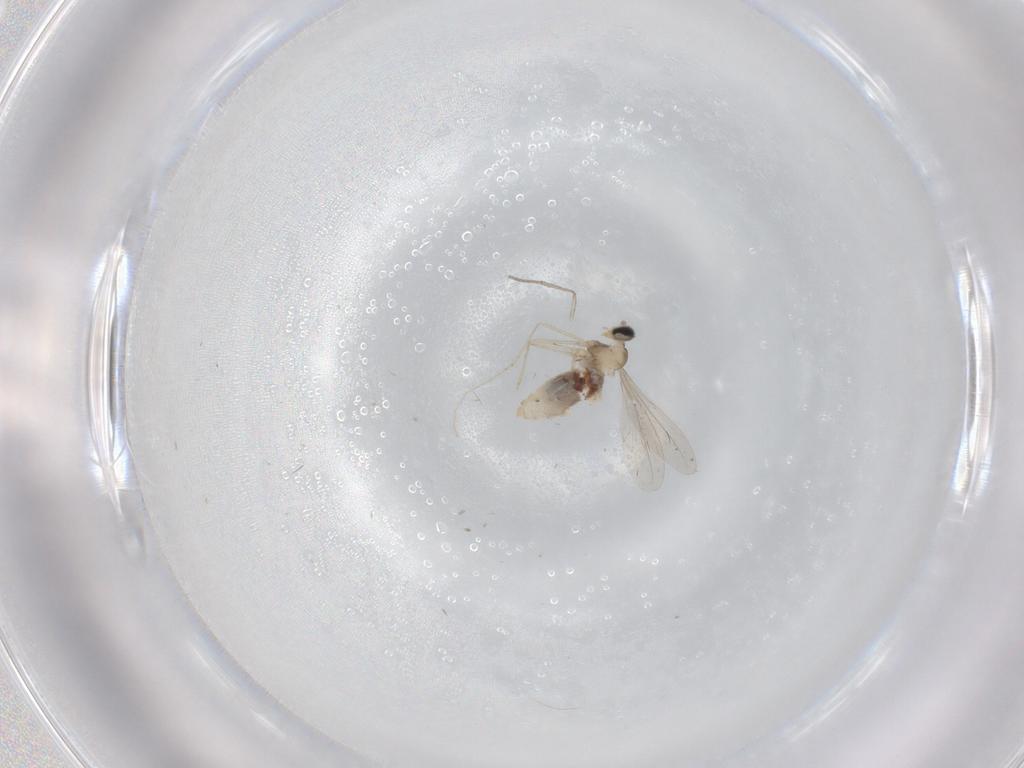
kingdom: Animalia
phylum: Arthropoda
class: Insecta
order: Diptera
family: Cecidomyiidae
